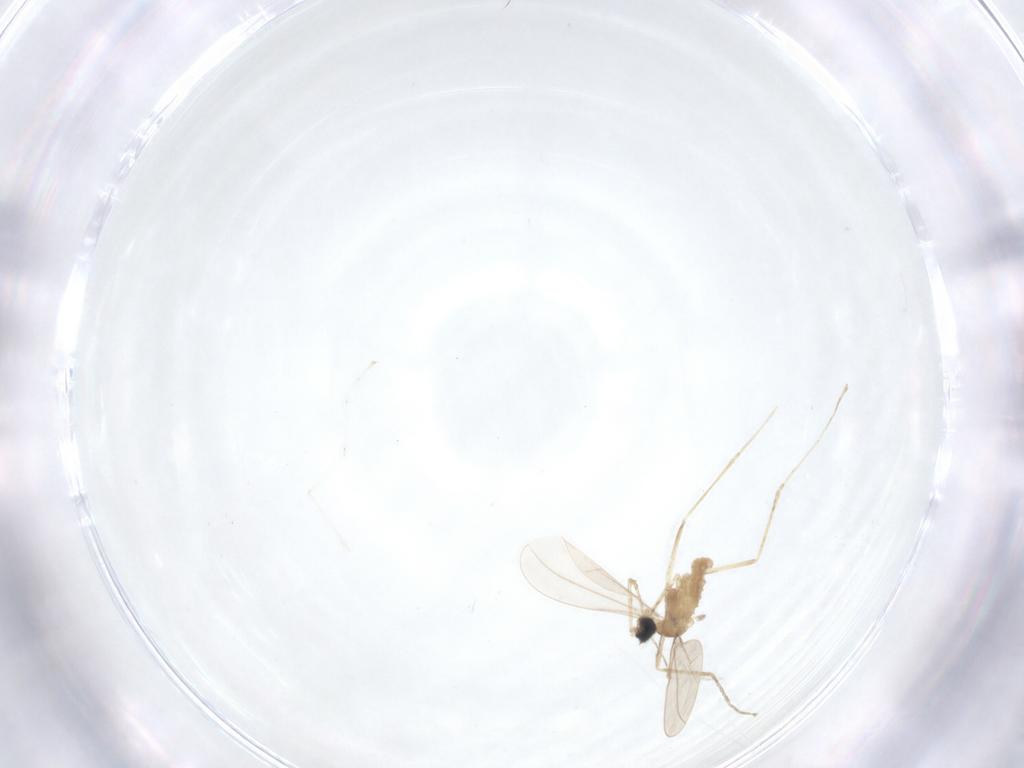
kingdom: Animalia
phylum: Arthropoda
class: Insecta
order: Diptera
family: Cecidomyiidae
